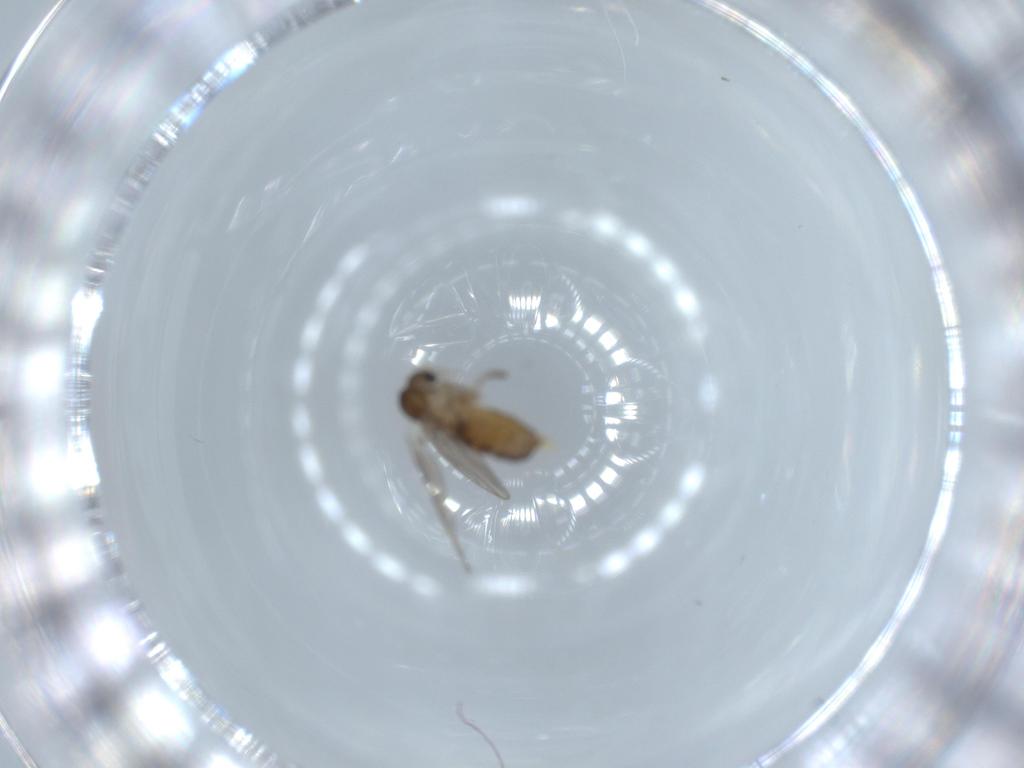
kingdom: Animalia
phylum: Arthropoda
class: Insecta
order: Diptera
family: Psychodidae
